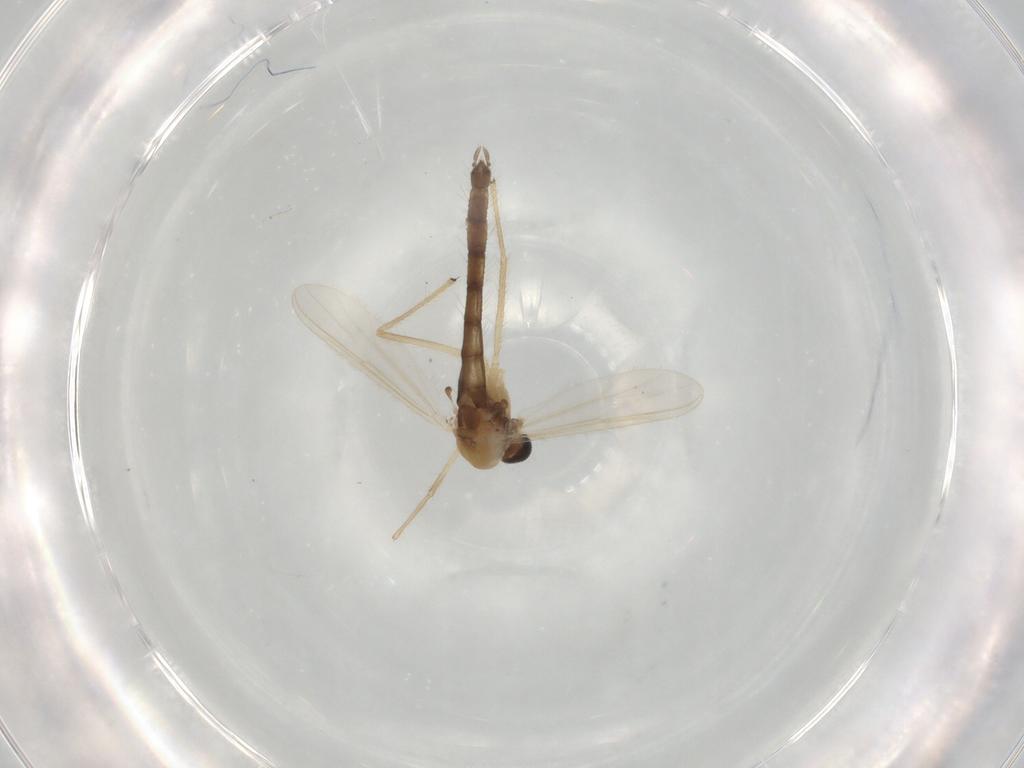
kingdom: Animalia
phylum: Arthropoda
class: Insecta
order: Diptera
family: Chironomidae
